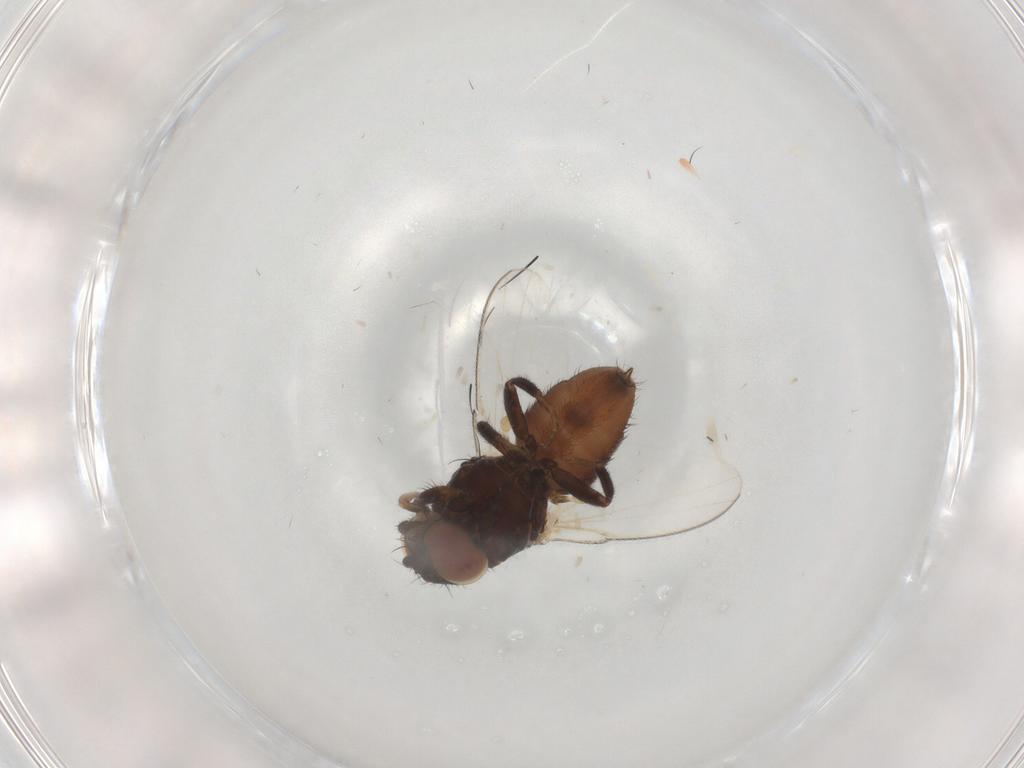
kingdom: Animalia
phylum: Arthropoda
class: Insecta
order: Diptera
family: Milichiidae
